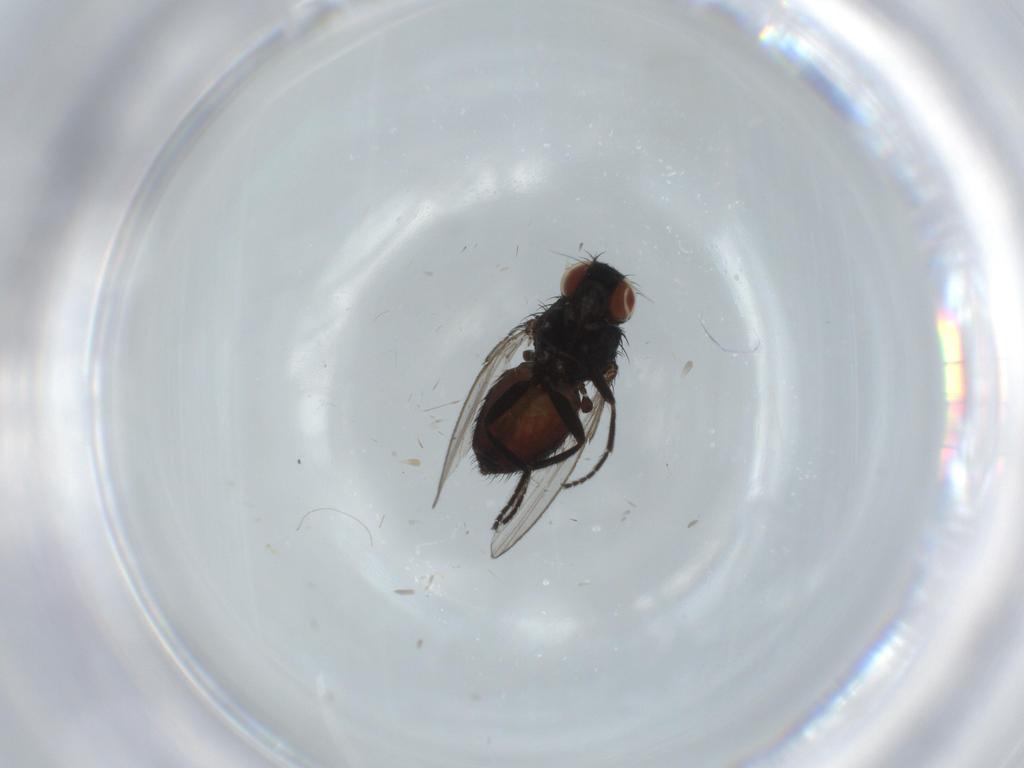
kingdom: Animalia
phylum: Arthropoda
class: Insecta
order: Diptera
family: Milichiidae
